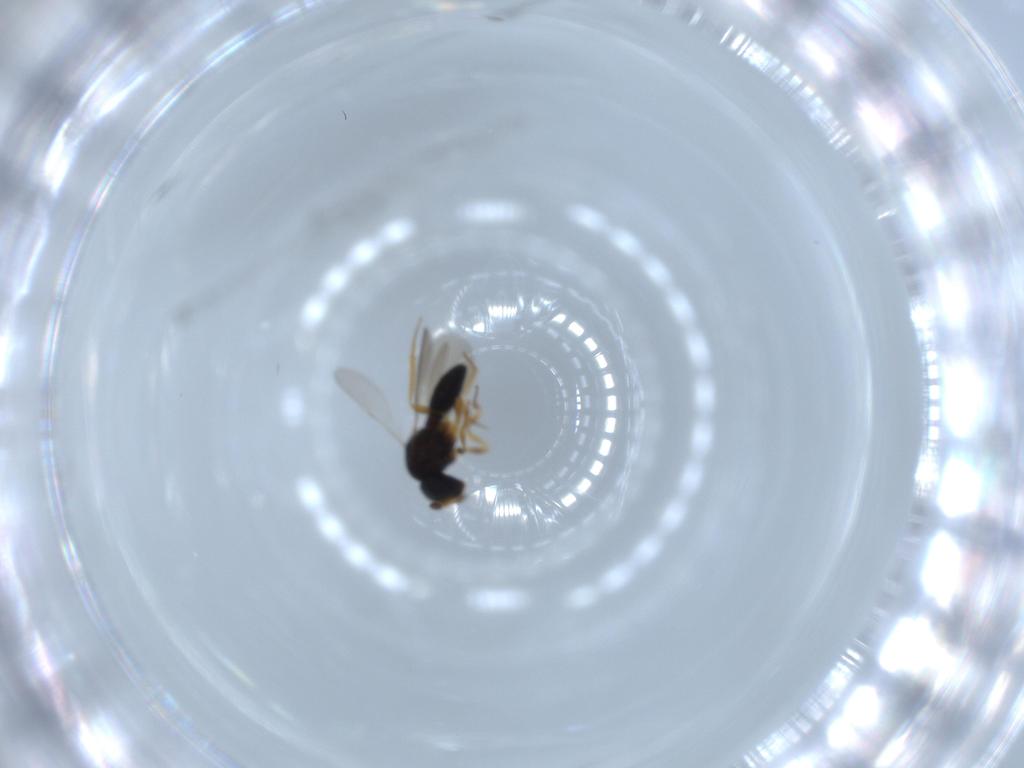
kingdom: Animalia
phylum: Arthropoda
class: Insecta
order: Hymenoptera
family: Scelionidae
